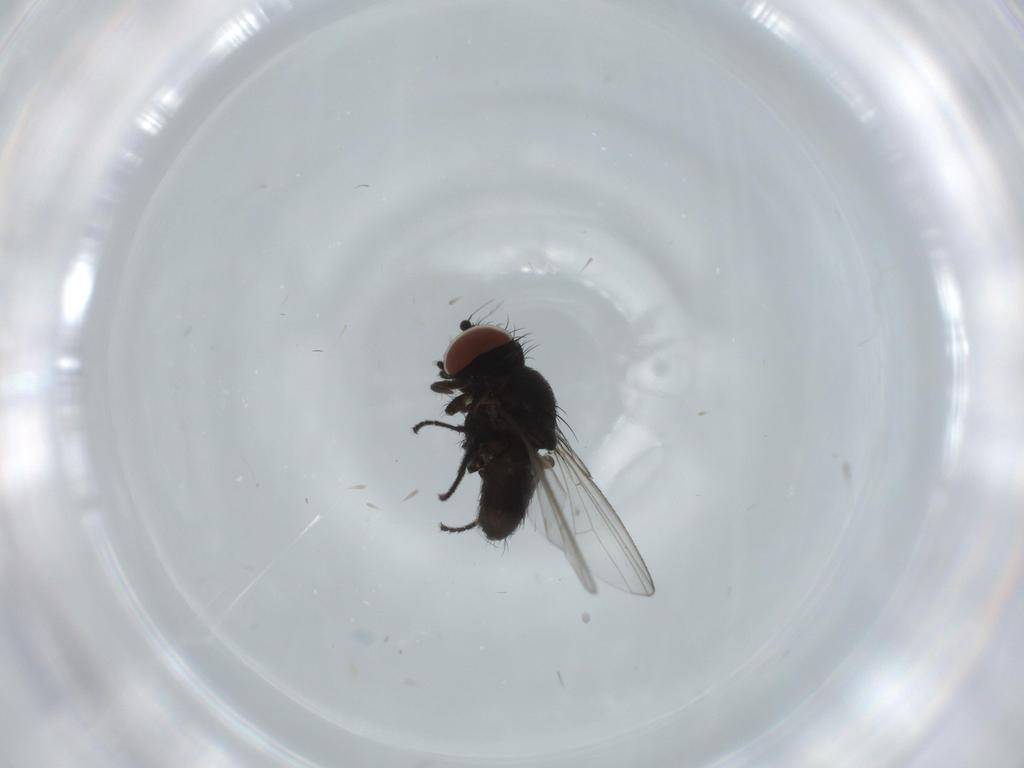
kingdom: Animalia
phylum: Arthropoda
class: Insecta
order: Diptera
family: Milichiidae
